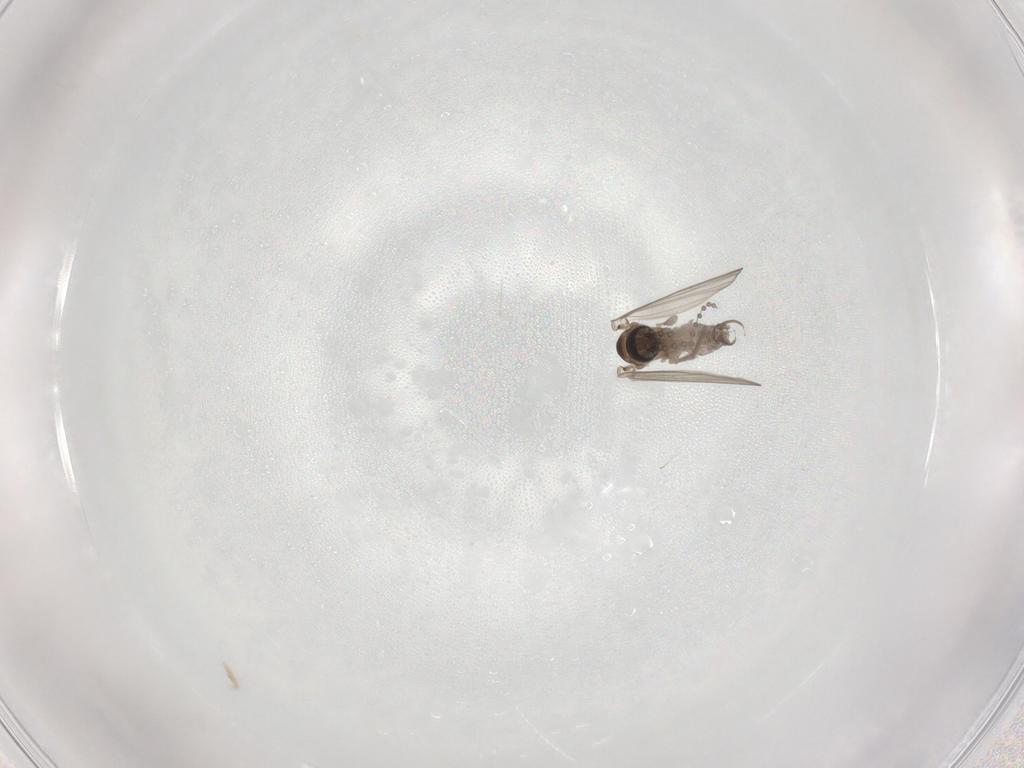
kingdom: Animalia
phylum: Arthropoda
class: Insecta
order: Diptera
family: Psychodidae
